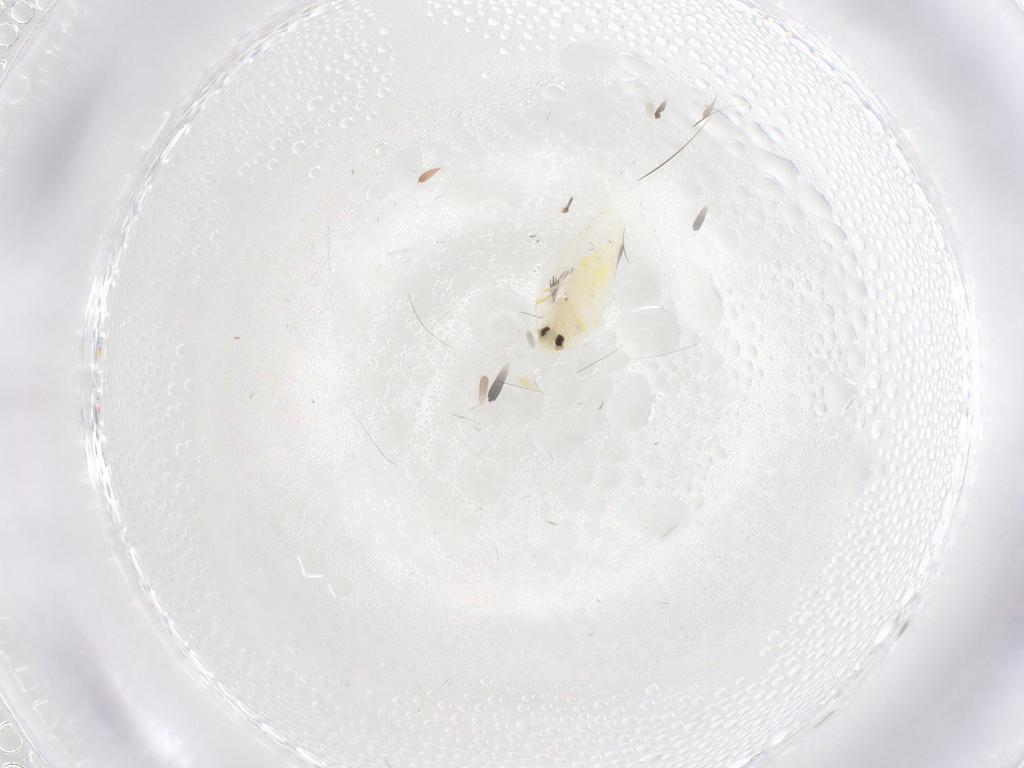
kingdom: Animalia
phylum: Arthropoda
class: Insecta
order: Hemiptera
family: Aleyrodidae
